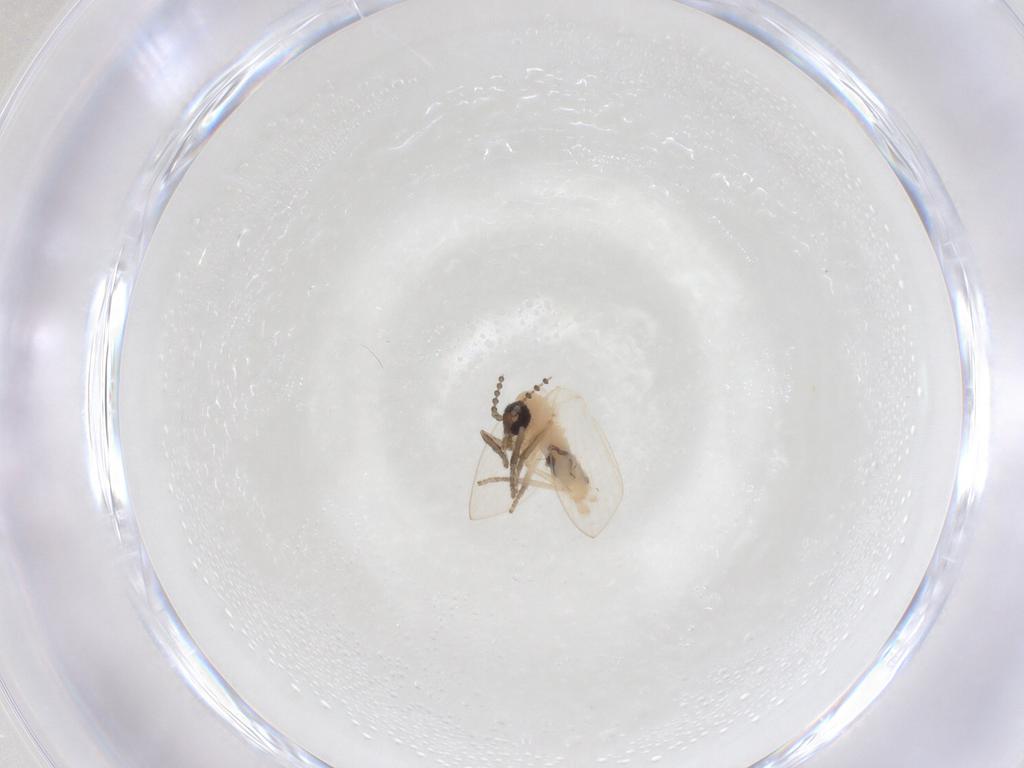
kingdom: Animalia
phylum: Arthropoda
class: Insecta
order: Diptera
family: Psychodidae
